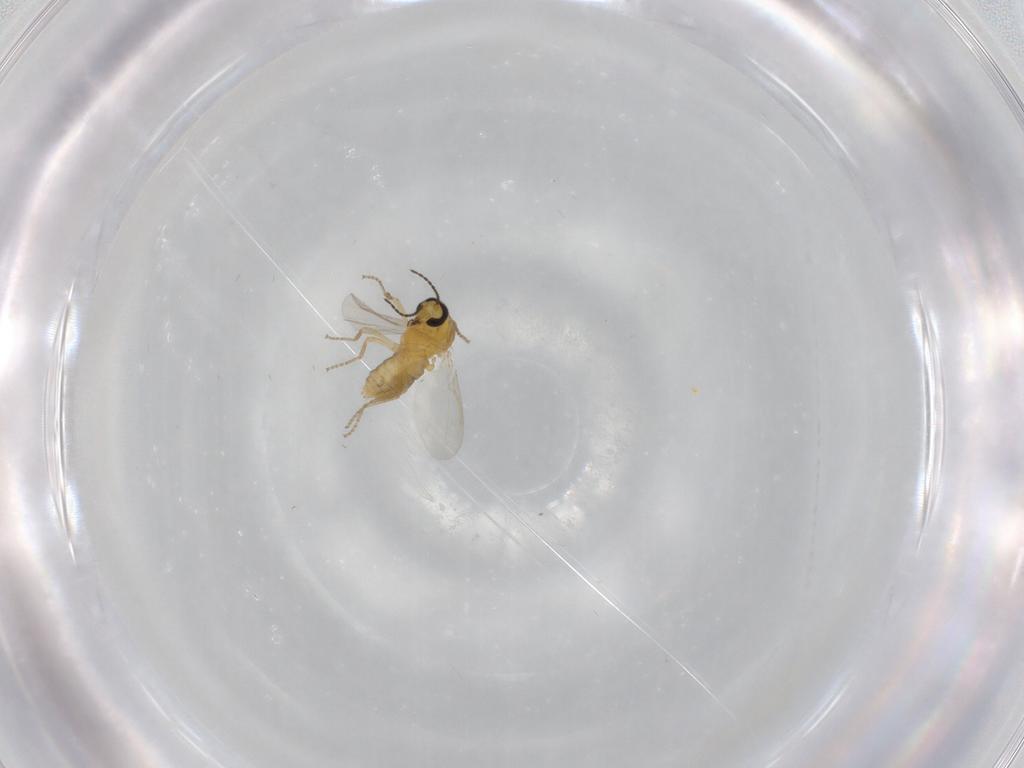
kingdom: Animalia
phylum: Arthropoda
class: Insecta
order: Diptera
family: Ceratopogonidae
